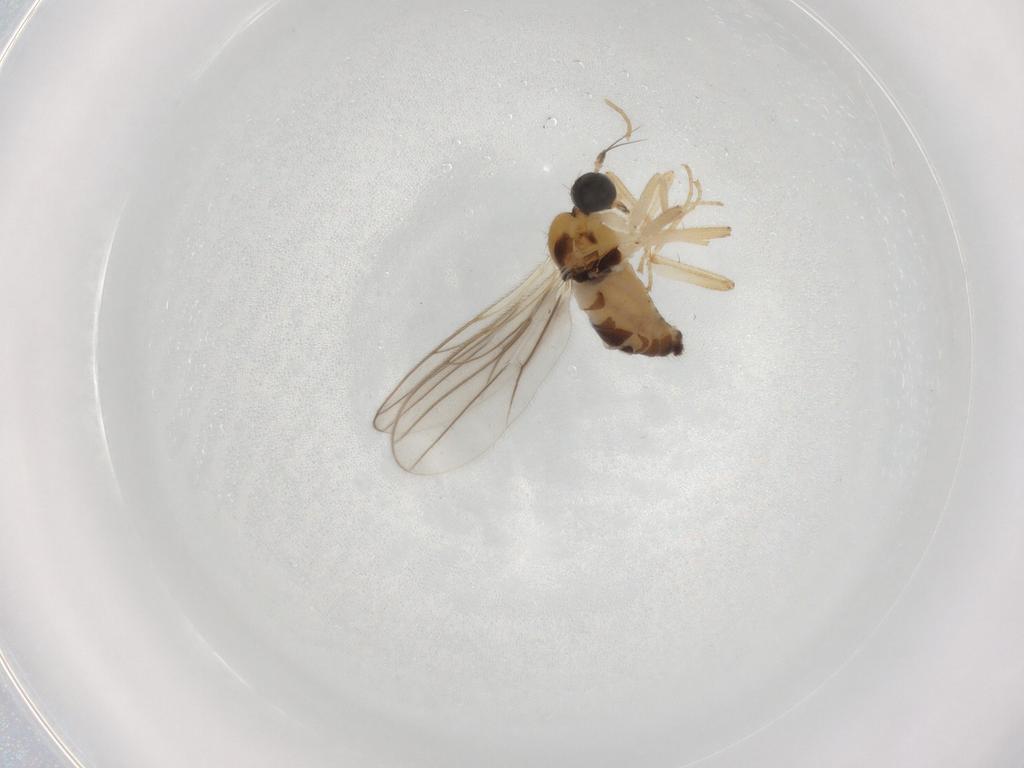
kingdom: Animalia
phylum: Arthropoda
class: Insecta
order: Diptera
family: Hybotidae
